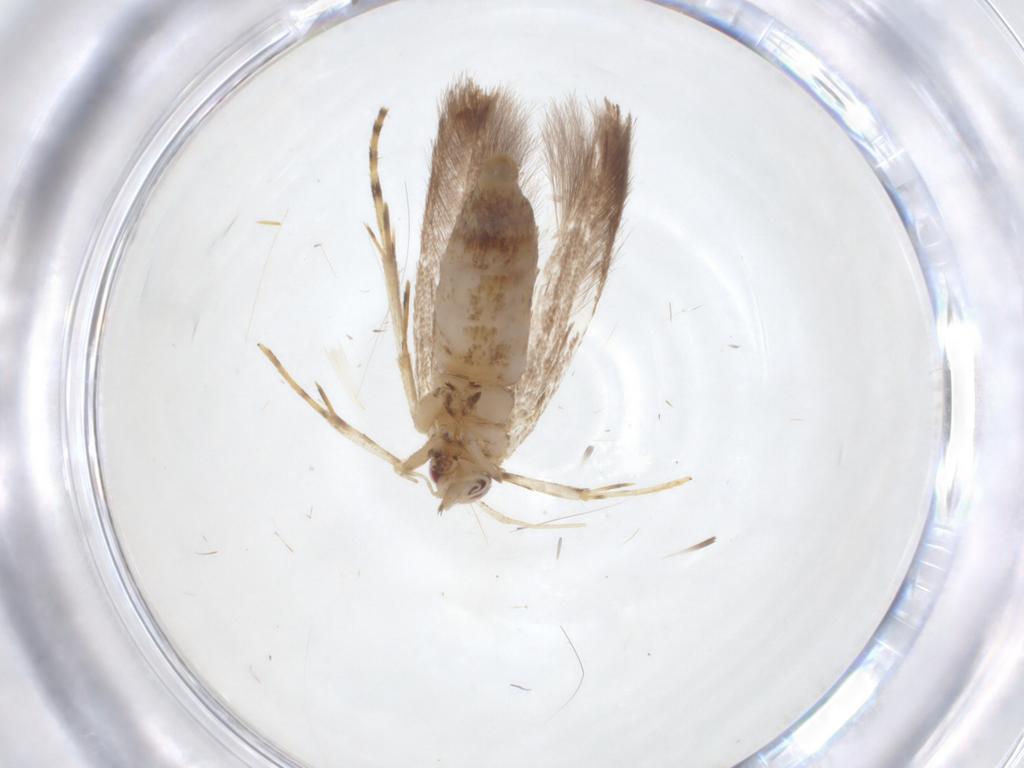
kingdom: Animalia
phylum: Arthropoda
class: Insecta
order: Lepidoptera
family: Cosmopterigidae
